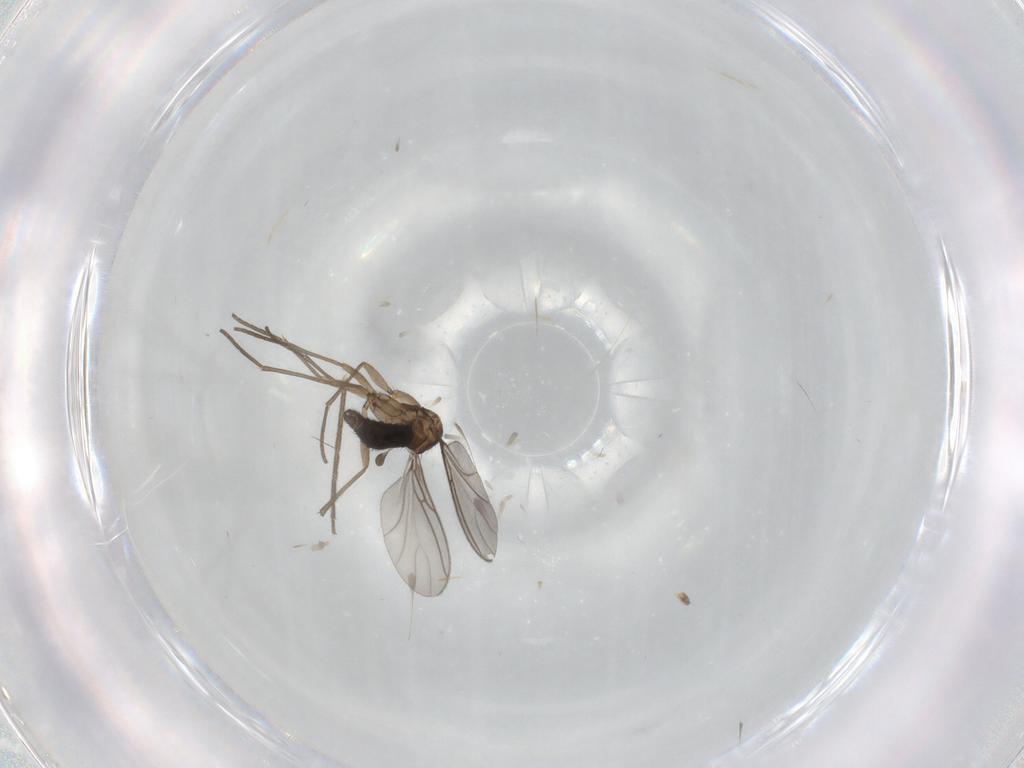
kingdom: Animalia
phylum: Arthropoda
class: Insecta
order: Diptera
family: Sciaridae
